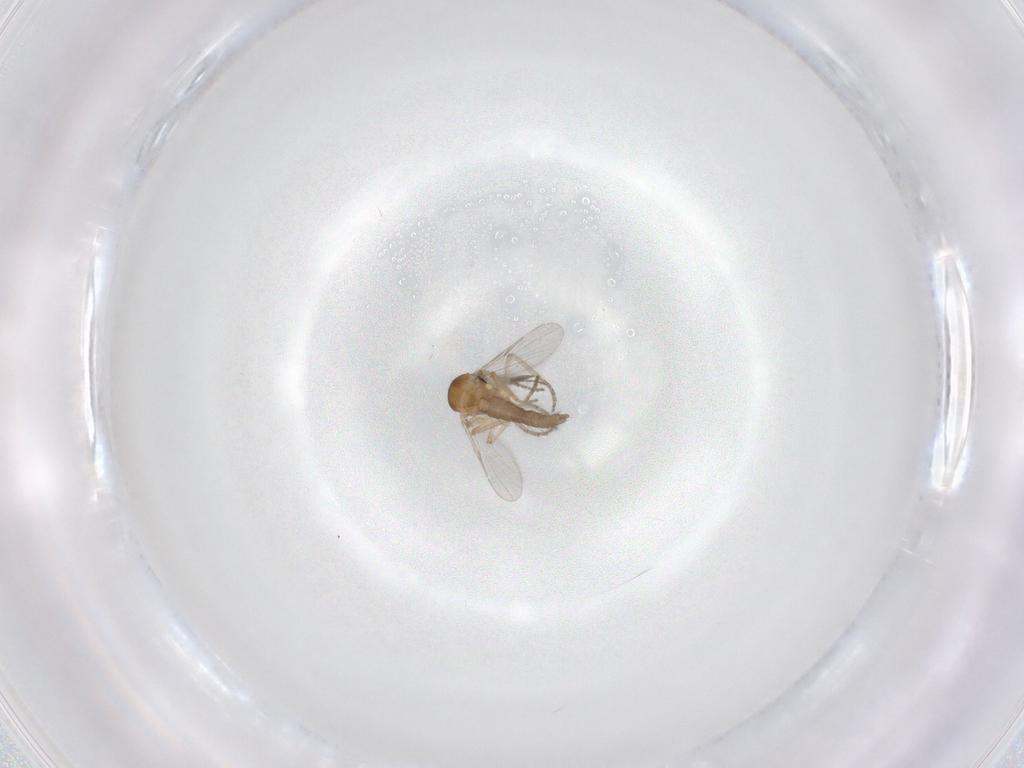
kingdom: Animalia
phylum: Arthropoda
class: Insecta
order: Diptera
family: Ceratopogonidae
